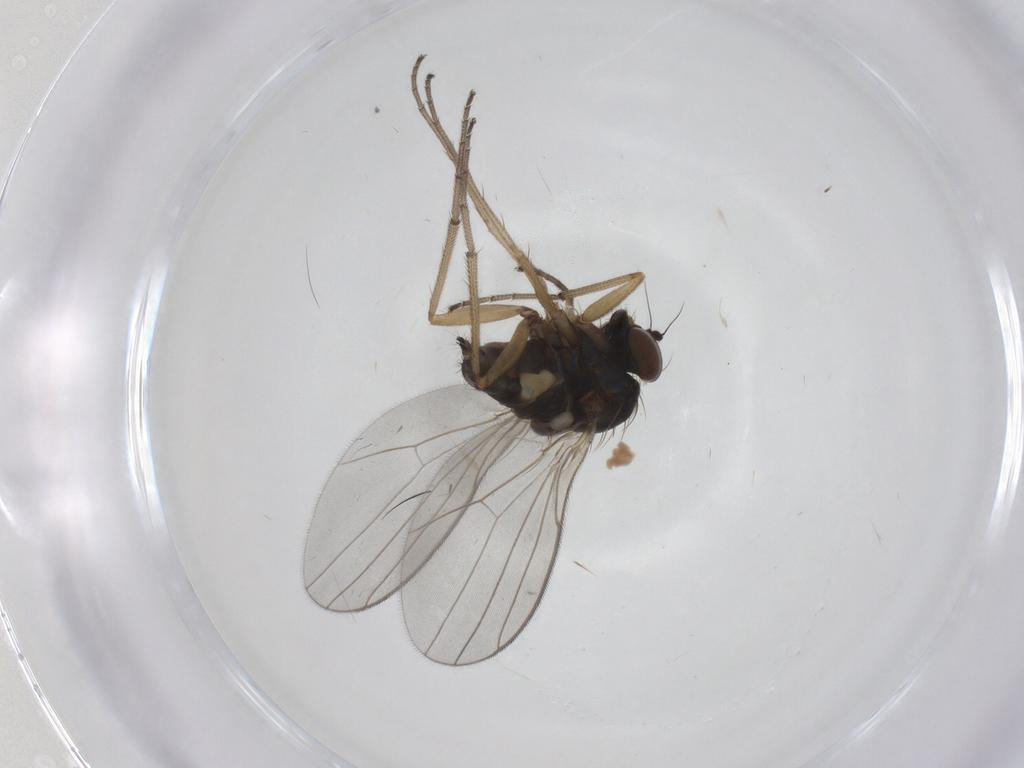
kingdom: Animalia
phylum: Arthropoda
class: Insecta
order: Diptera
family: Dolichopodidae
